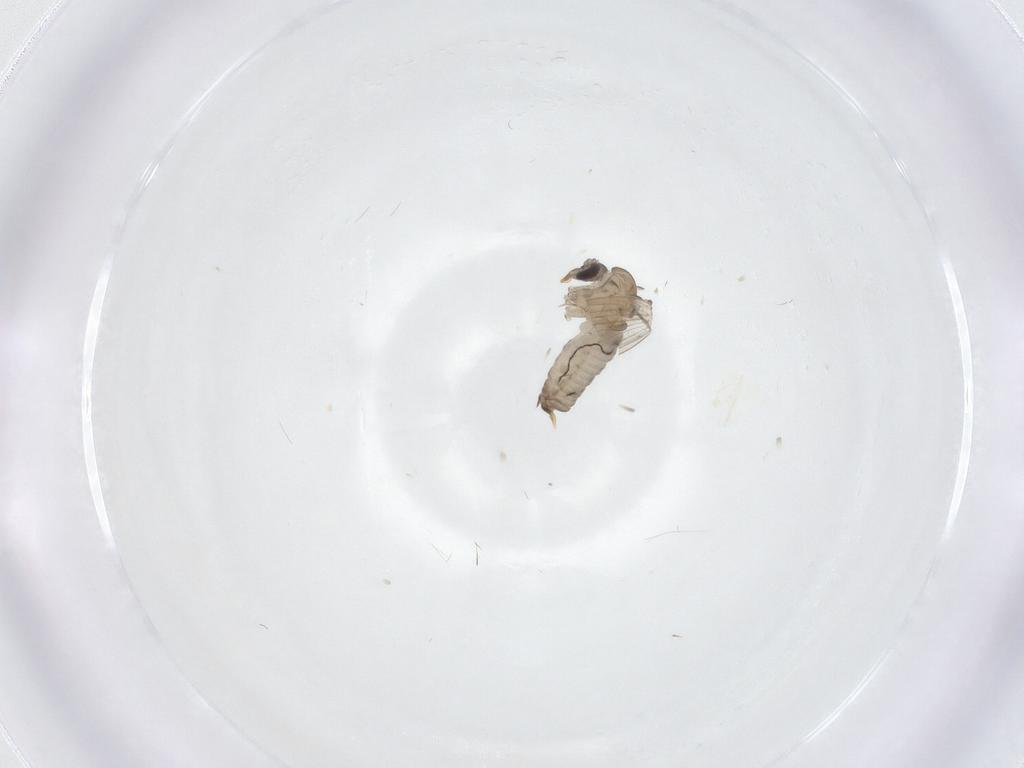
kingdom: Animalia
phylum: Arthropoda
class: Insecta
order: Diptera
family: Psychodidae
